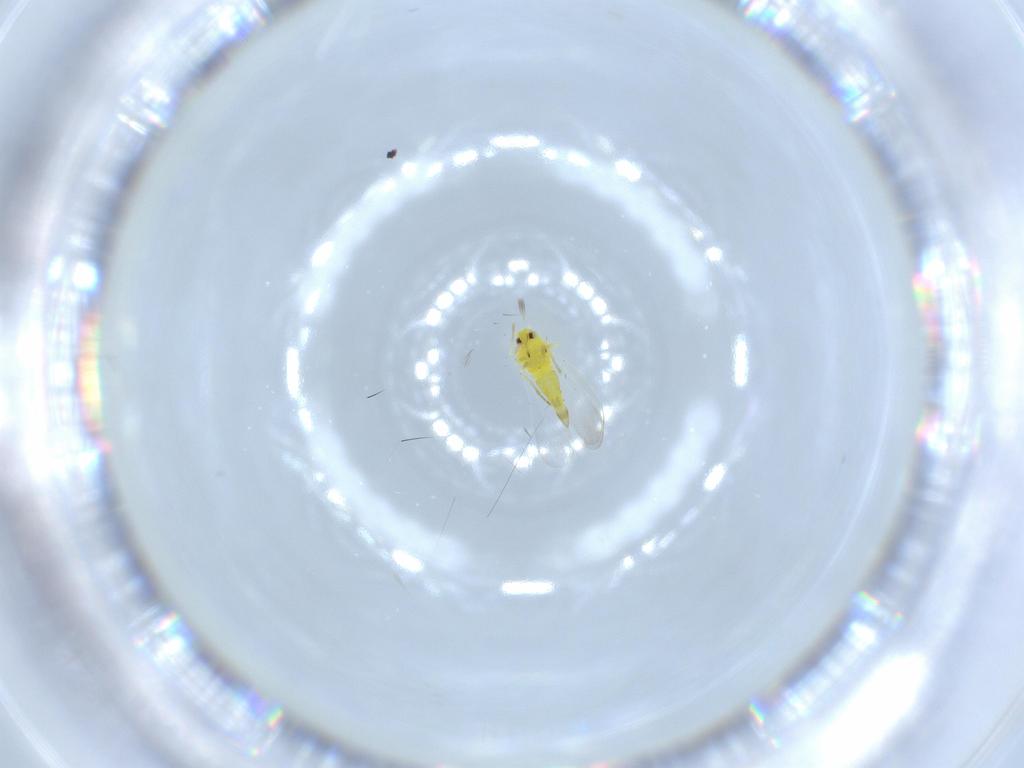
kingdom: Animalia
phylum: Arthropoda
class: Insecta
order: Hemiptera
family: Aleyrodidae
